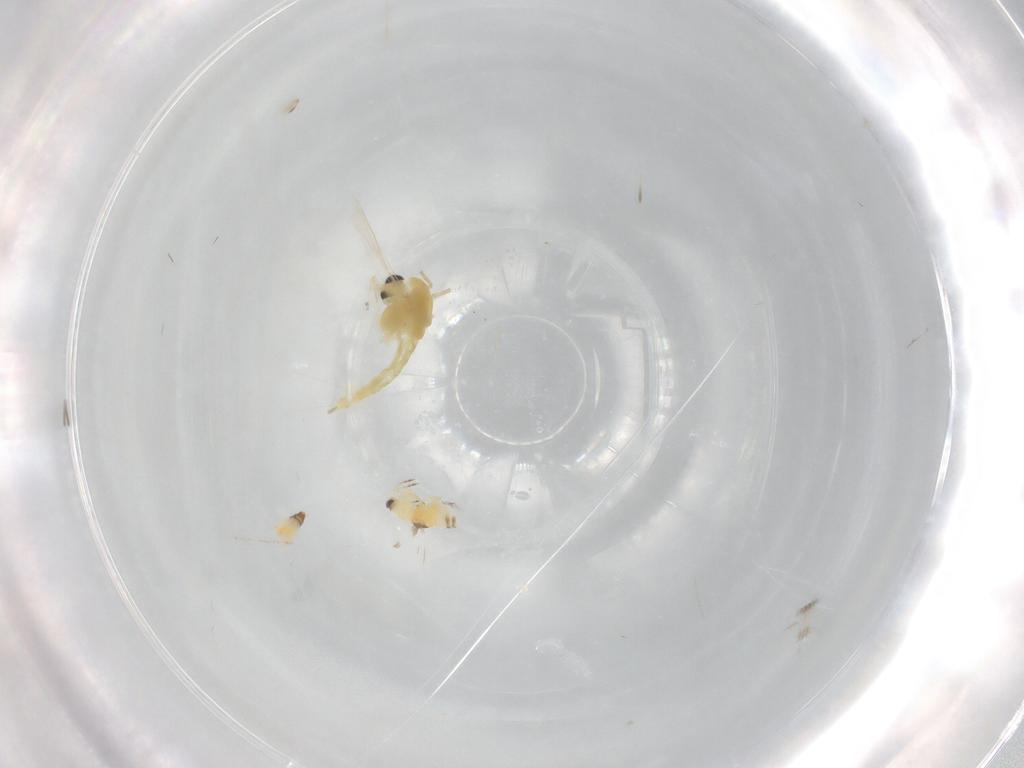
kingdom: Animalia
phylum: Arthropoda
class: Insecta
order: Diptera
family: Chironomidae
